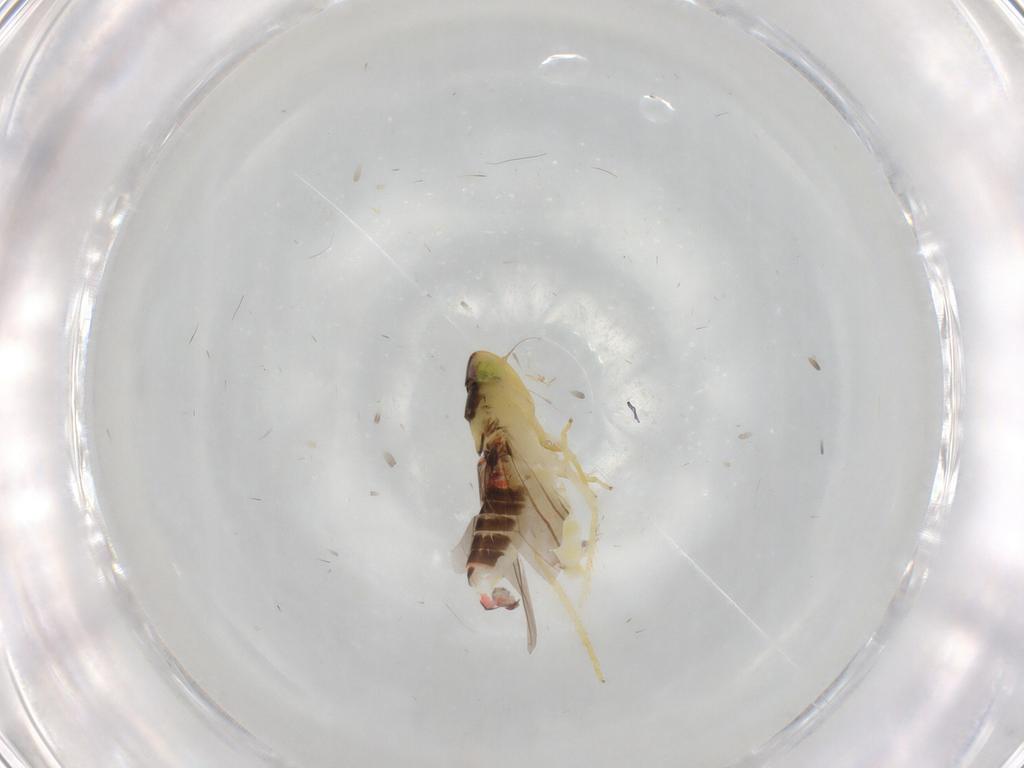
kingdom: Animalia
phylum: Arthropoda
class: Insecta
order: Hemiptera
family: Cicadellidae
